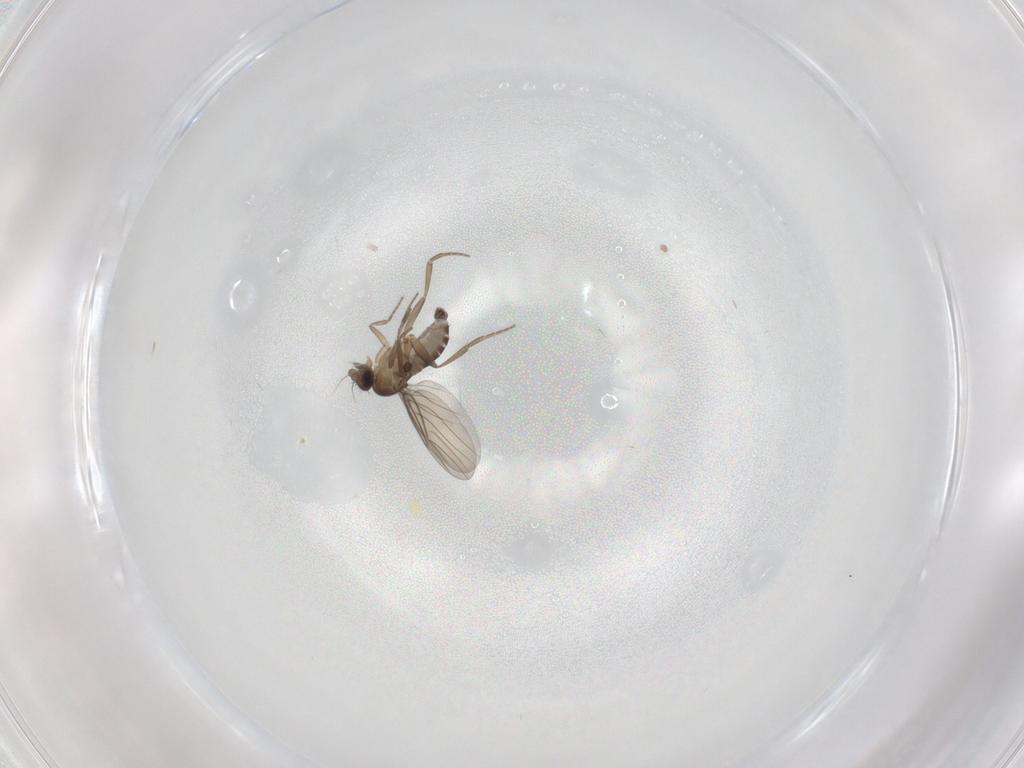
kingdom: Animalia
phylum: Arthropoda
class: Insecta
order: Diptera
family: Phoridae
